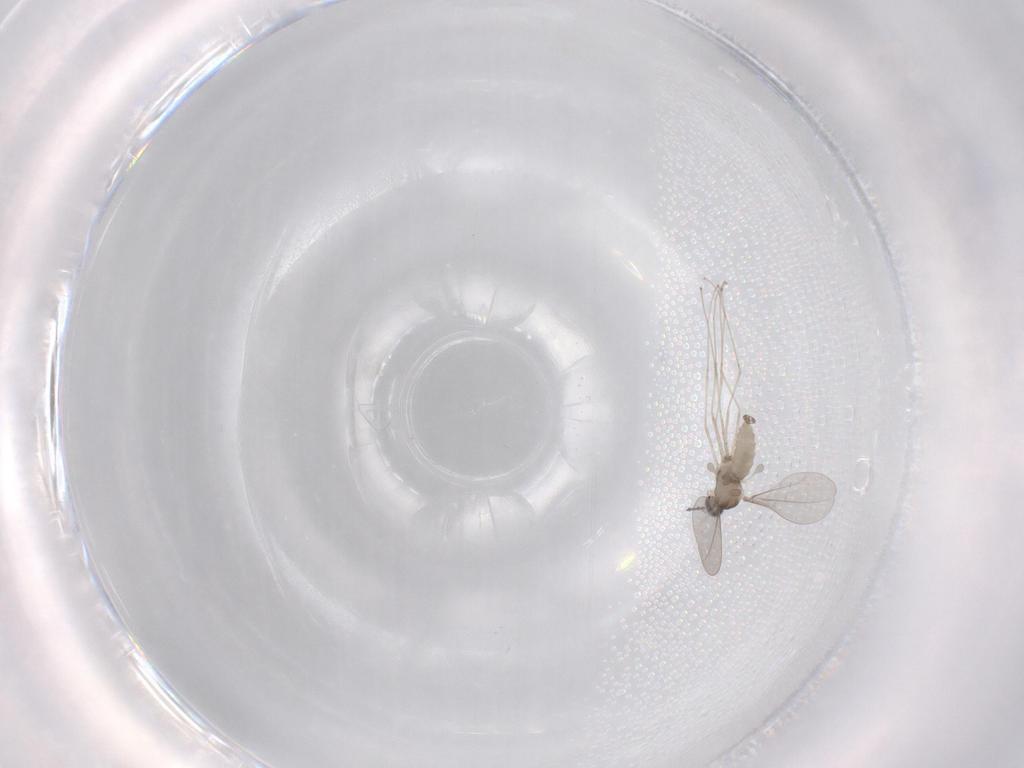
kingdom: Animalia
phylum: Arthropoda
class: Insecta
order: Diptera
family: Cecidomyiidae
